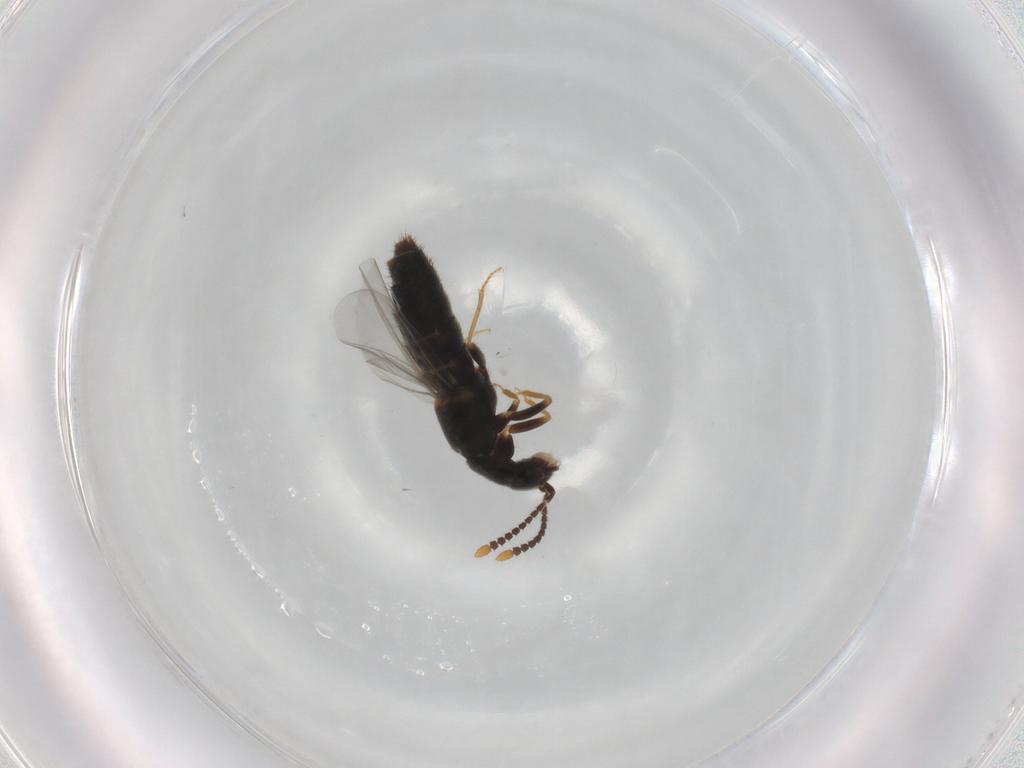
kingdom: Animalia
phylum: Arthropoda
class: Insecta
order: Coleoptera
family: Staphylinidae
